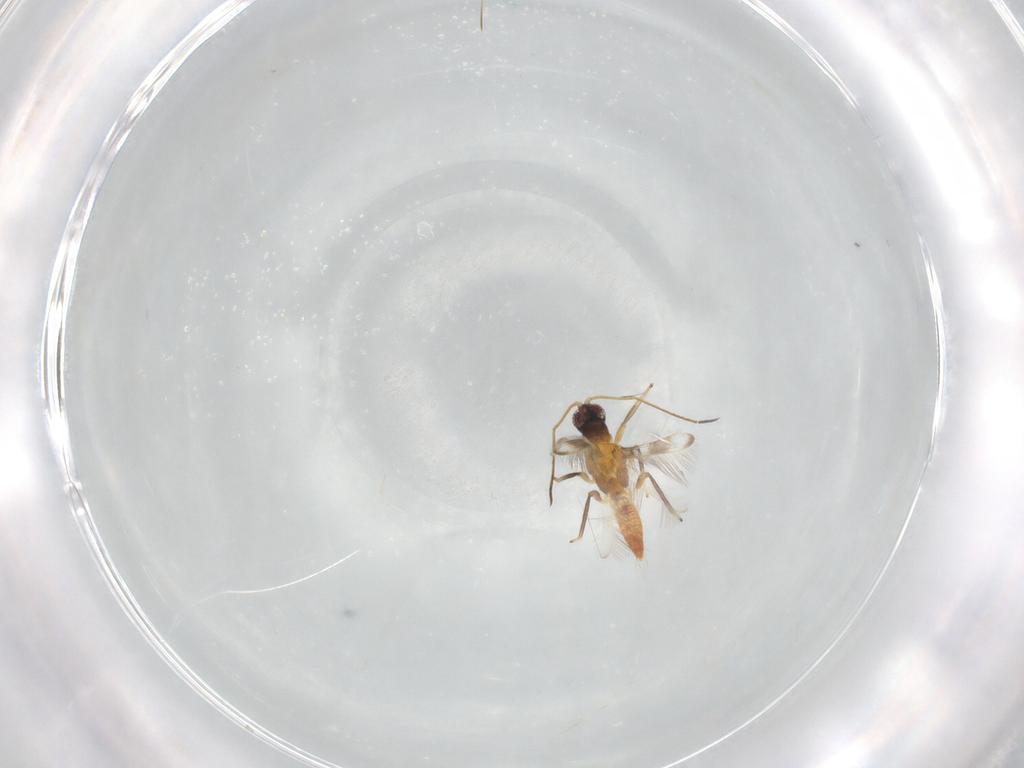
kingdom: Animalia
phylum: Arthropoda
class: Insecta
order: Thysanoptera
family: Aeolothripidae
